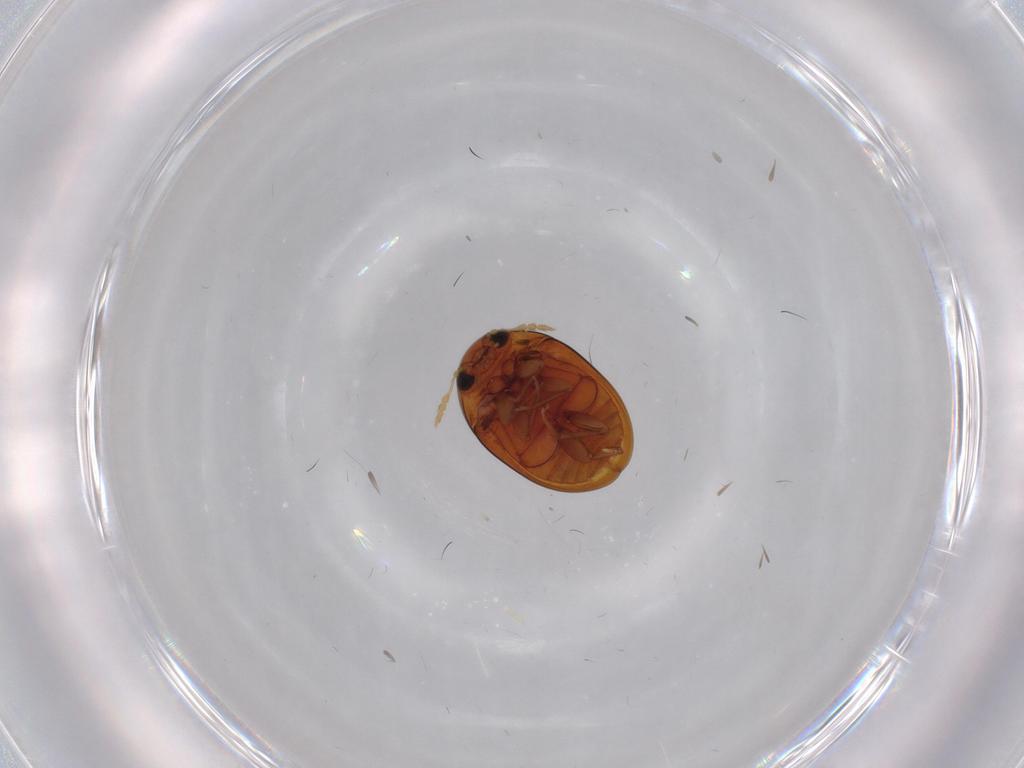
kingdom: Animalia
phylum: Arthropoda
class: Insecta
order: Coleoptera
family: Phalacridae
